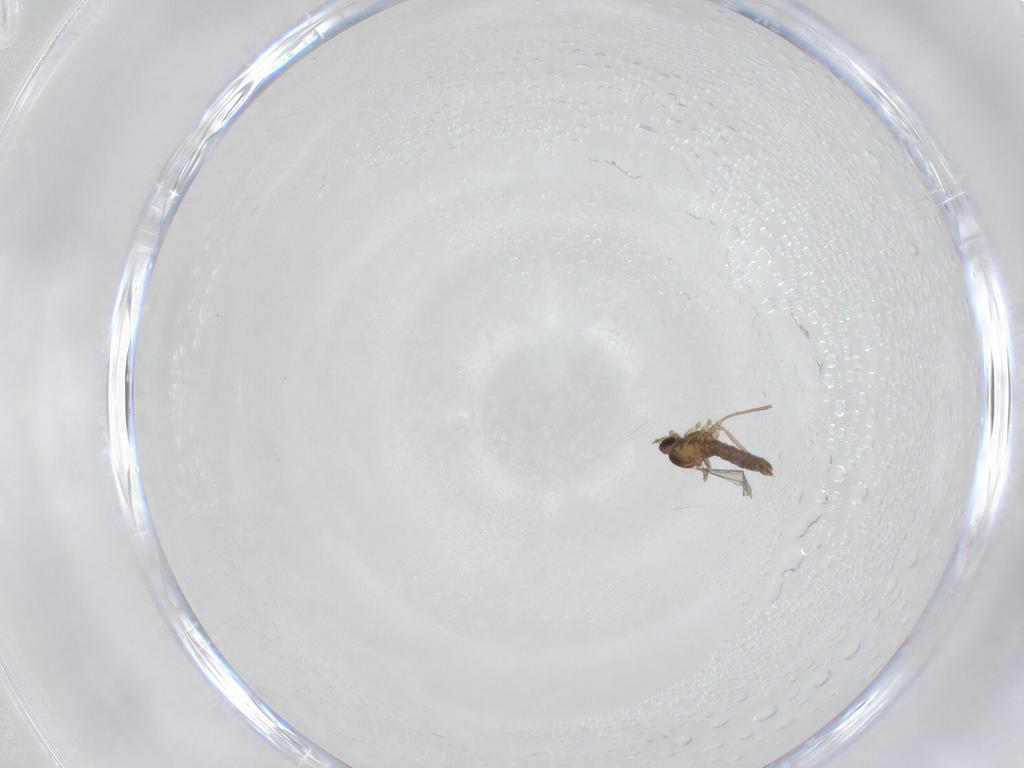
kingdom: Animalia
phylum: Arthropoda
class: Insecta
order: Diptera
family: Cecidomyiidae
